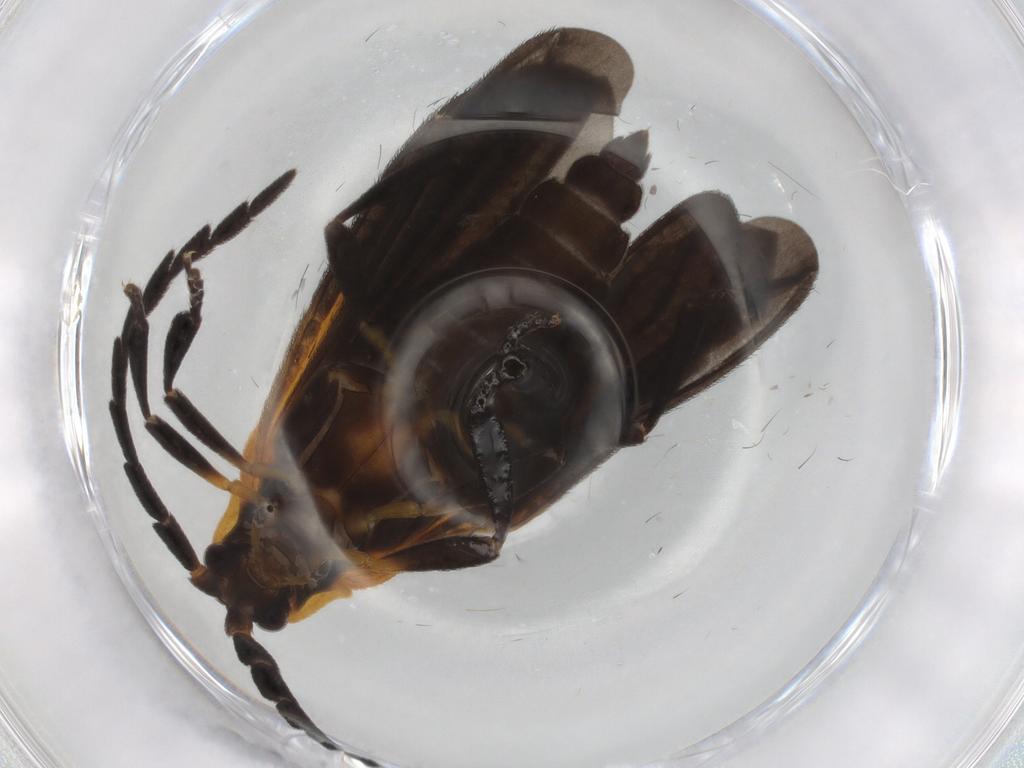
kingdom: Animalia
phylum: Arthropoda
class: Insecta
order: Coleoptera
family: Lycidae
